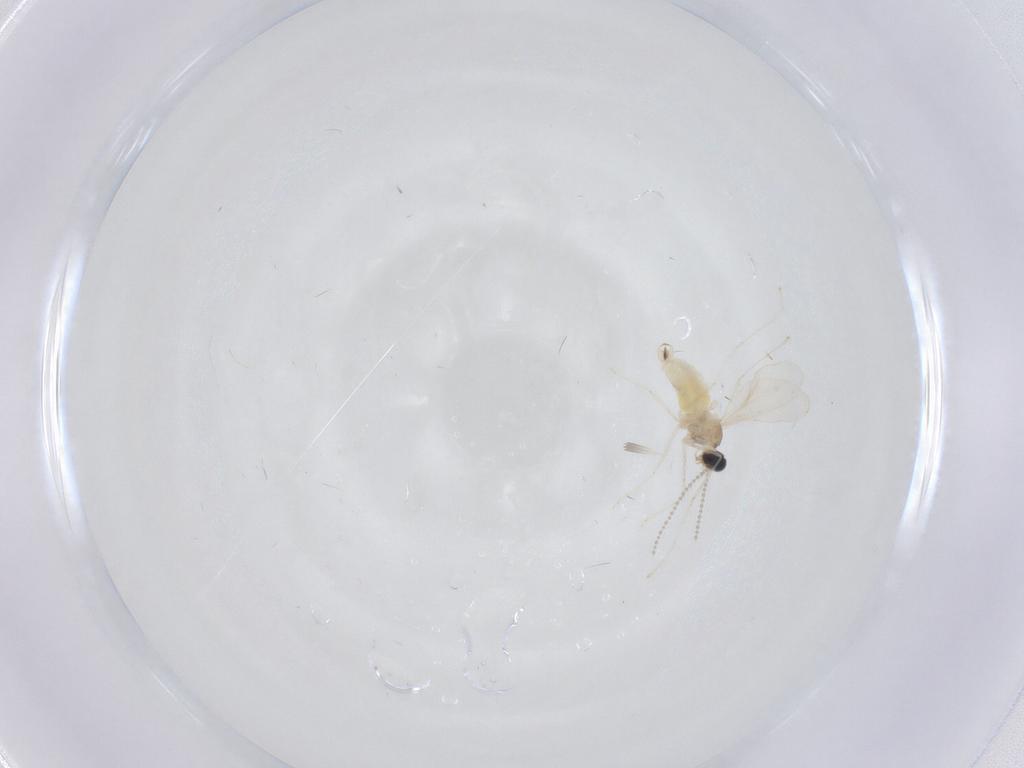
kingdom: Animalia
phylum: Arthropoda
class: Insecta
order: Diptera
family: Cecidomyiidae
